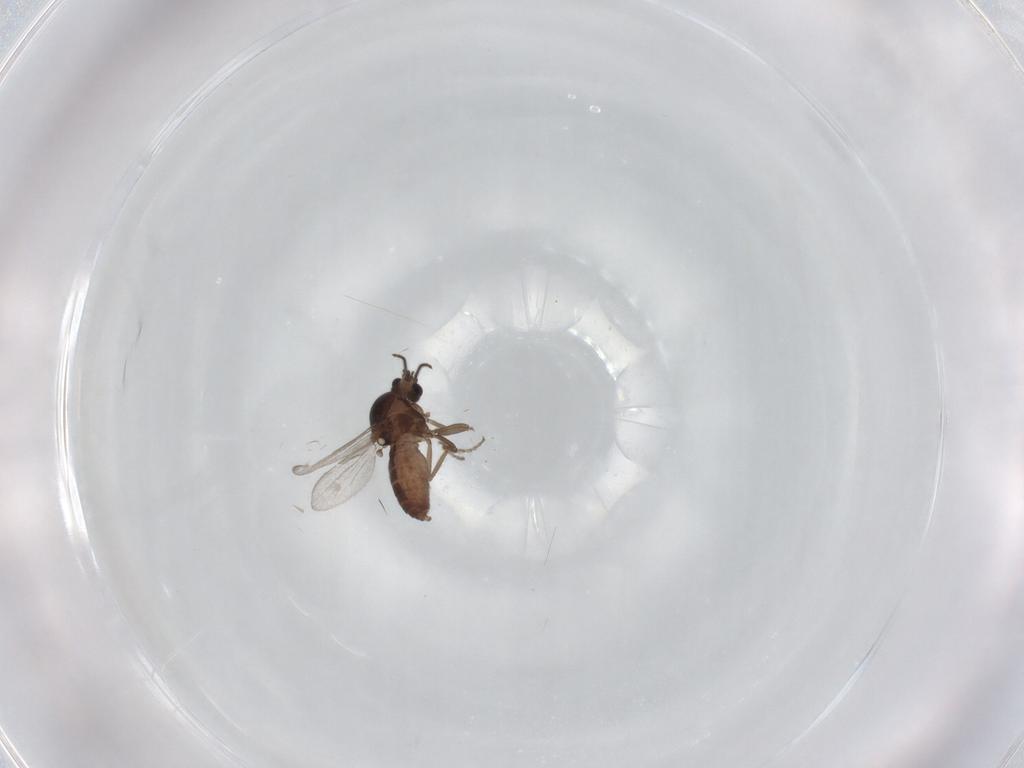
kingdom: Animalia
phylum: Arthropoda
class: Insecta
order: Diptera
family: Ceratopogonidae
